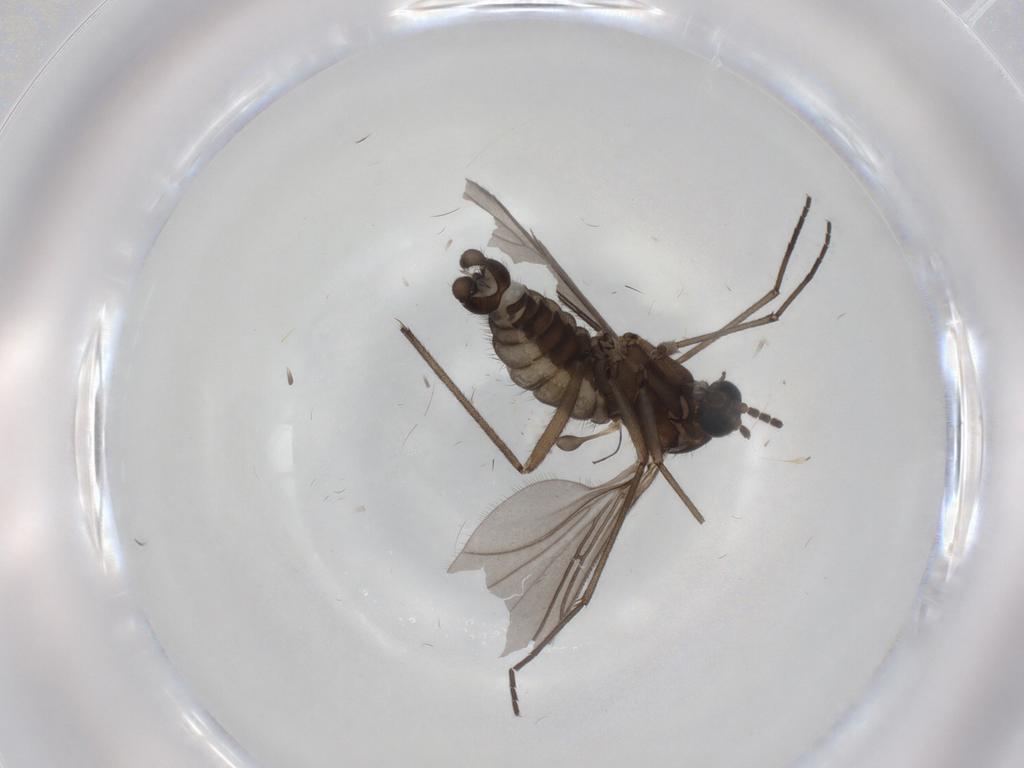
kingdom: Animalia
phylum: Arthropoda
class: Insecta
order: Diptera
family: Sciaridae
